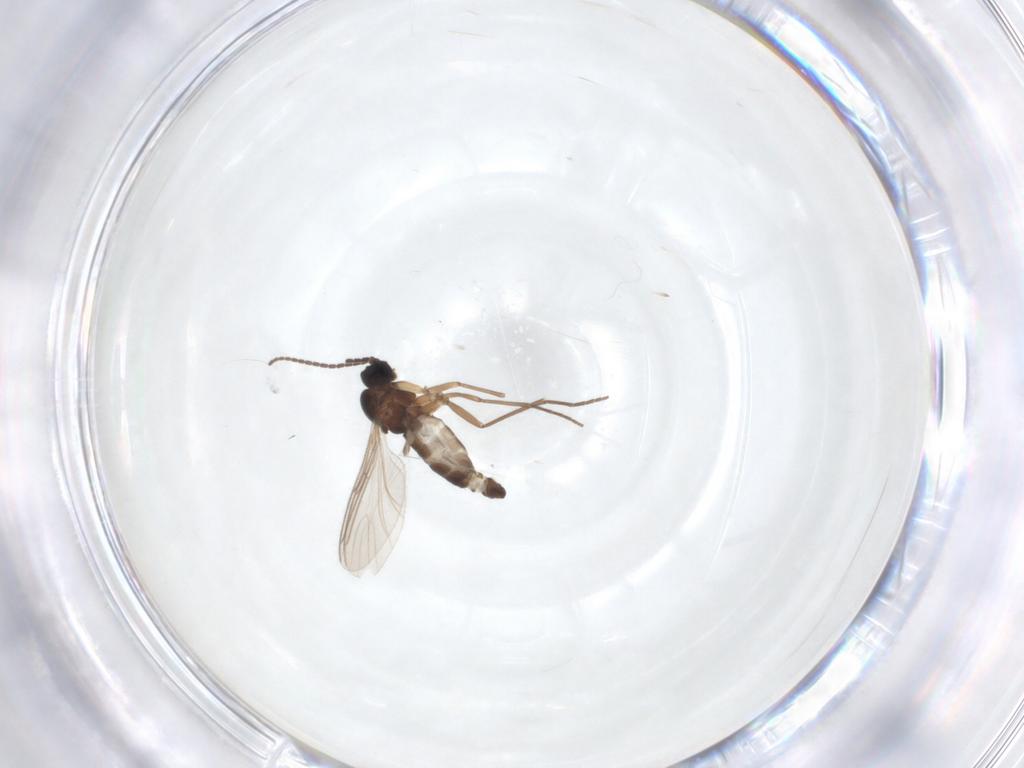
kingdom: Animalia
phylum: Arthropoda
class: Insecta
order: Diptera
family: Sciaridae
